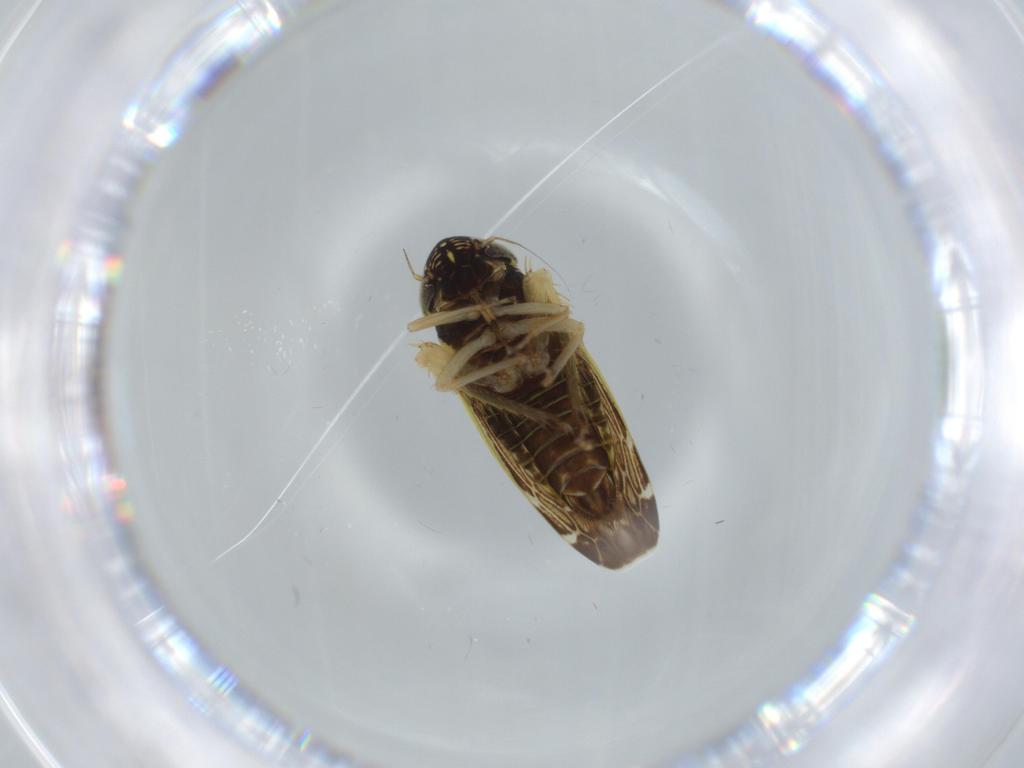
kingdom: Animalia
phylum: Arthropoda
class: Insecta
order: Hemiptera
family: Cicadellidae
